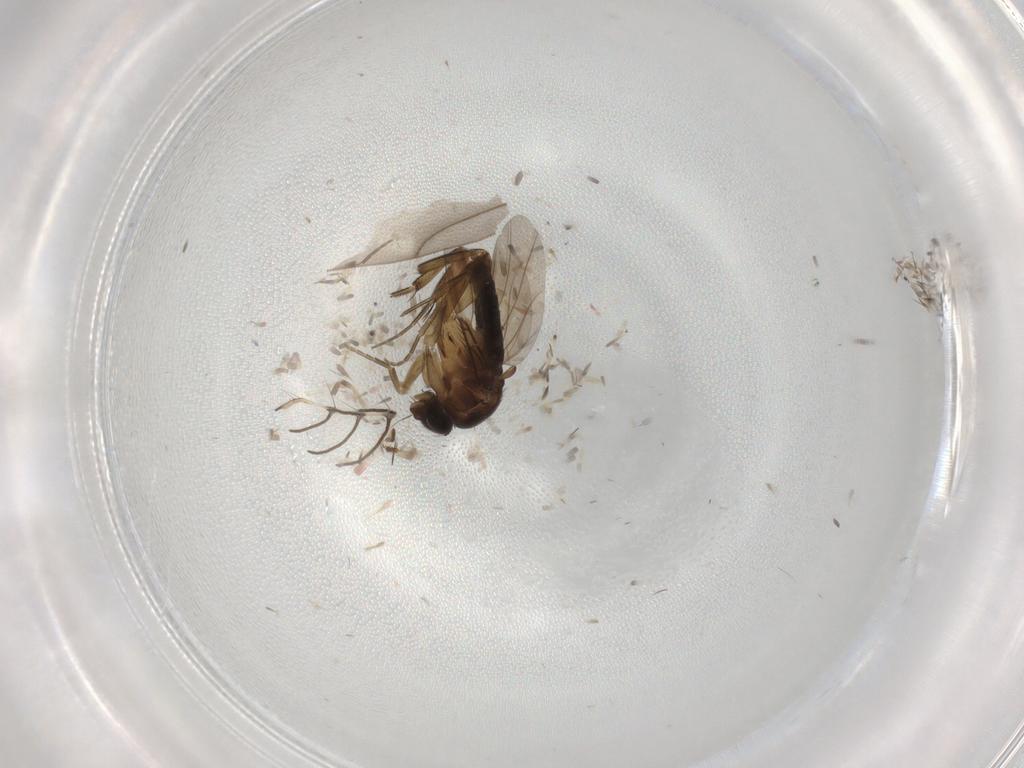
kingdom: Animalia
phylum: Arthropoda
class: Insecta
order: Diptera
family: Phoridae
